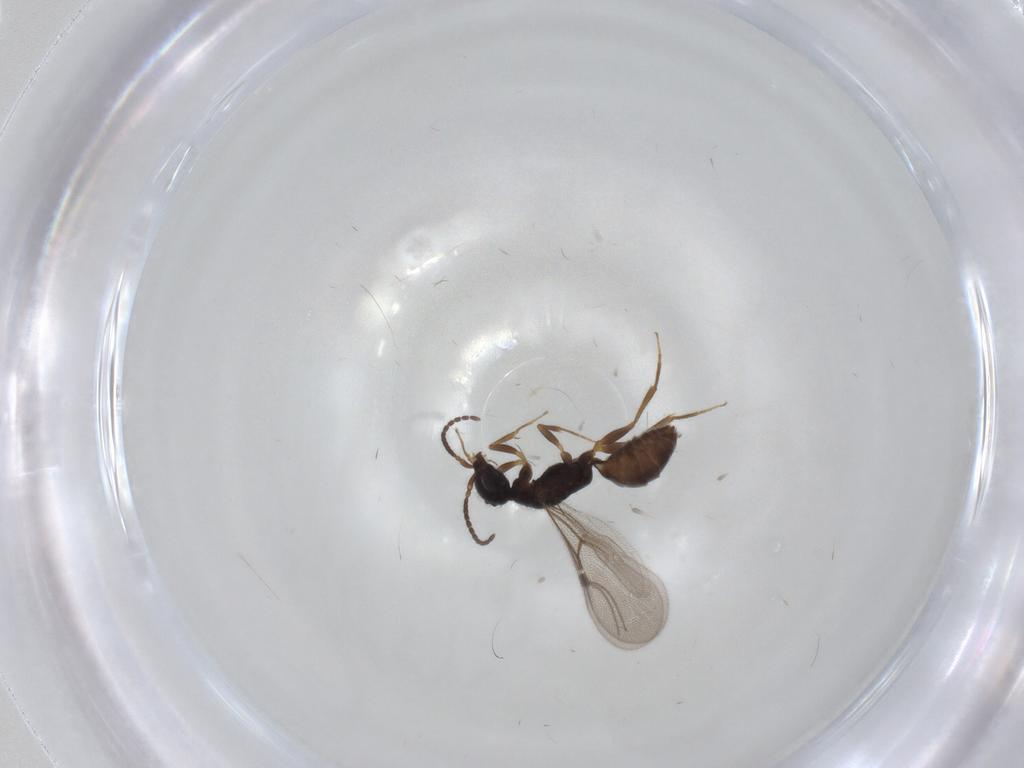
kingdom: Animalia
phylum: Arthropoda
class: Insecta
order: Hymenoptera
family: Bethylidae
